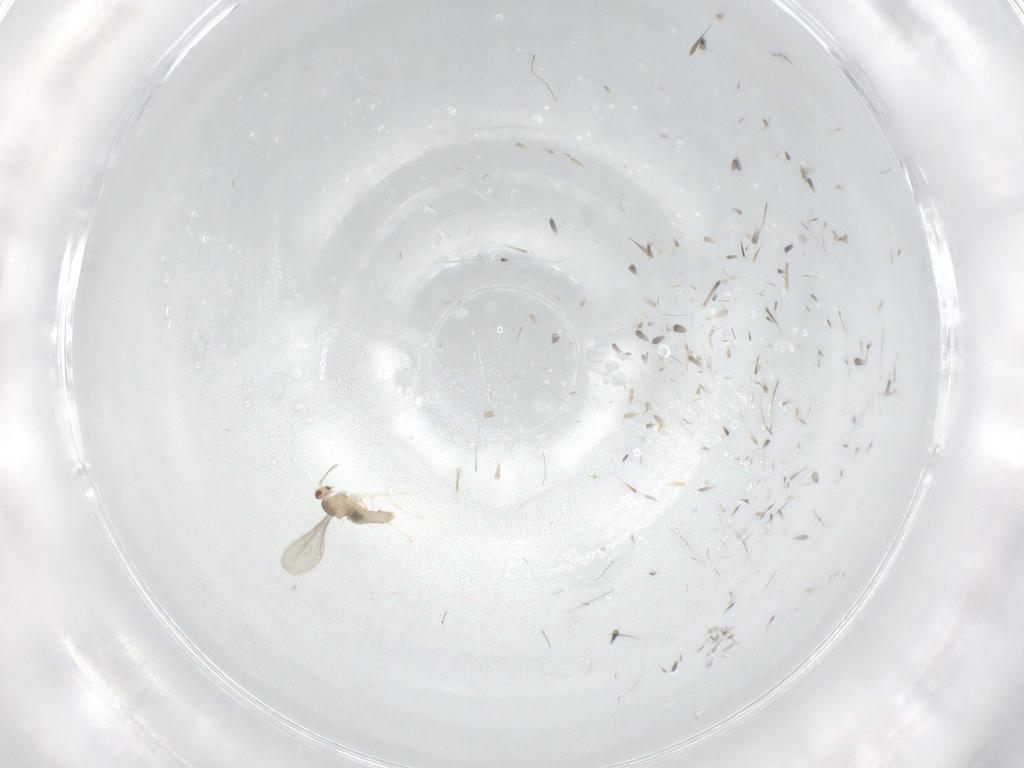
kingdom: Animalia
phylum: Arthropoda
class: Insecta
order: Diptera
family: Cecidomyiidae
